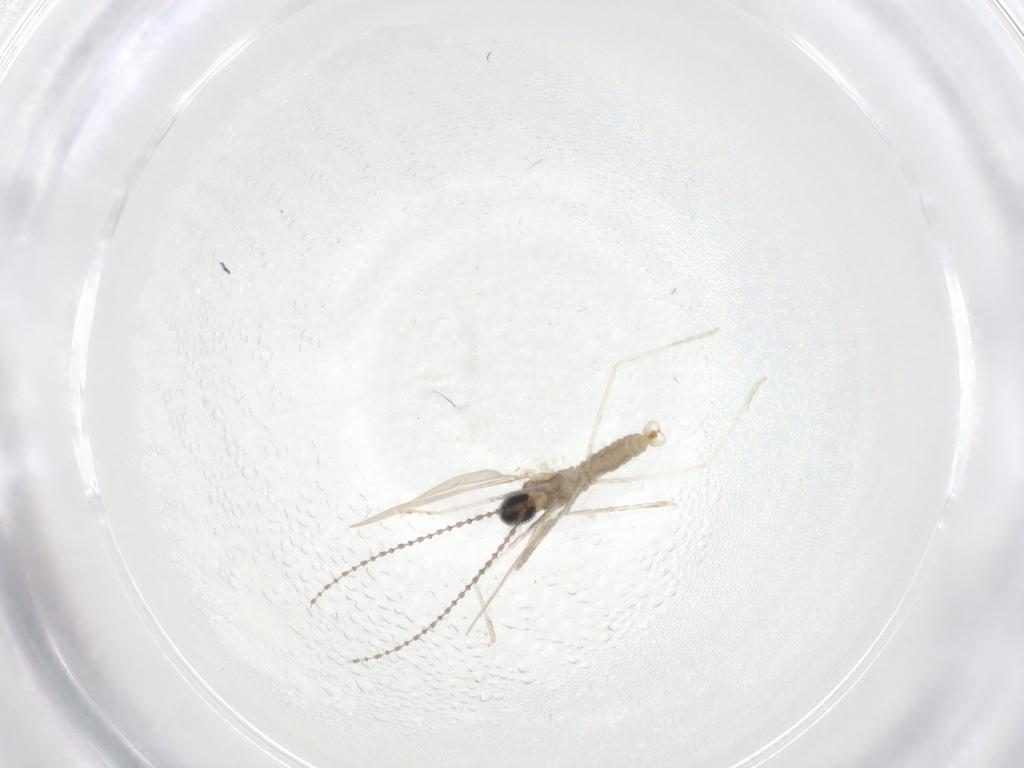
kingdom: Animalia
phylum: Arthropoda
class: Insecta
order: Diptera
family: Cecidomyiidae
